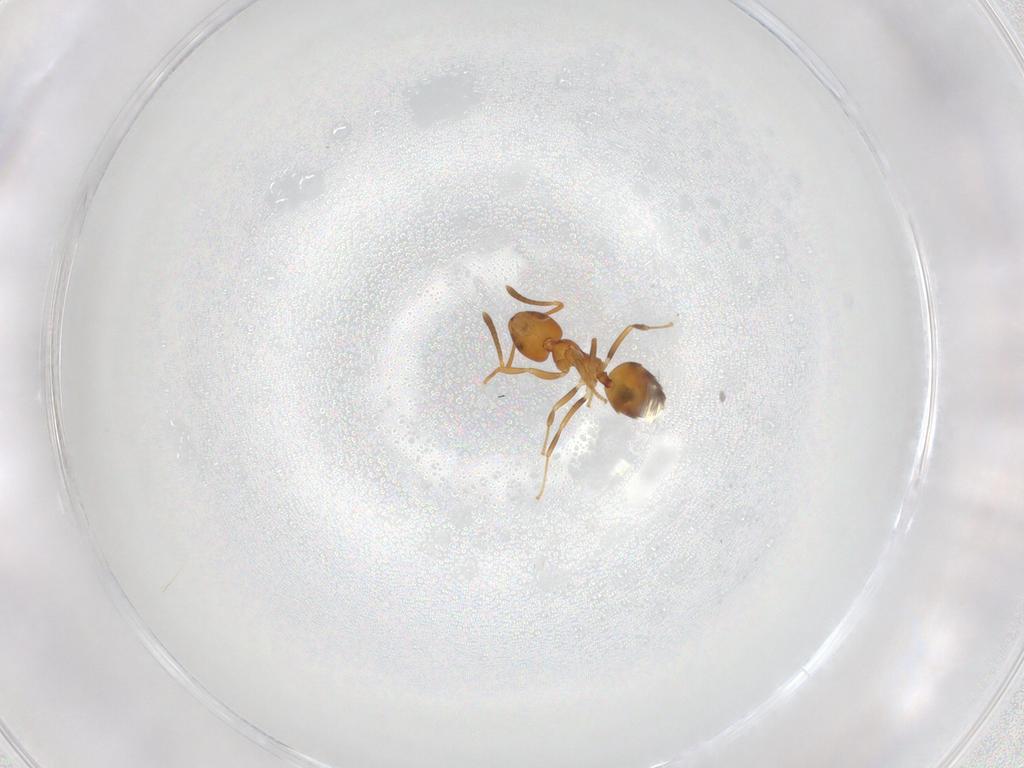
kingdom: Animalia
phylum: Arthropoda
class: Insecta
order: Hymenoptera
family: Formicidae
